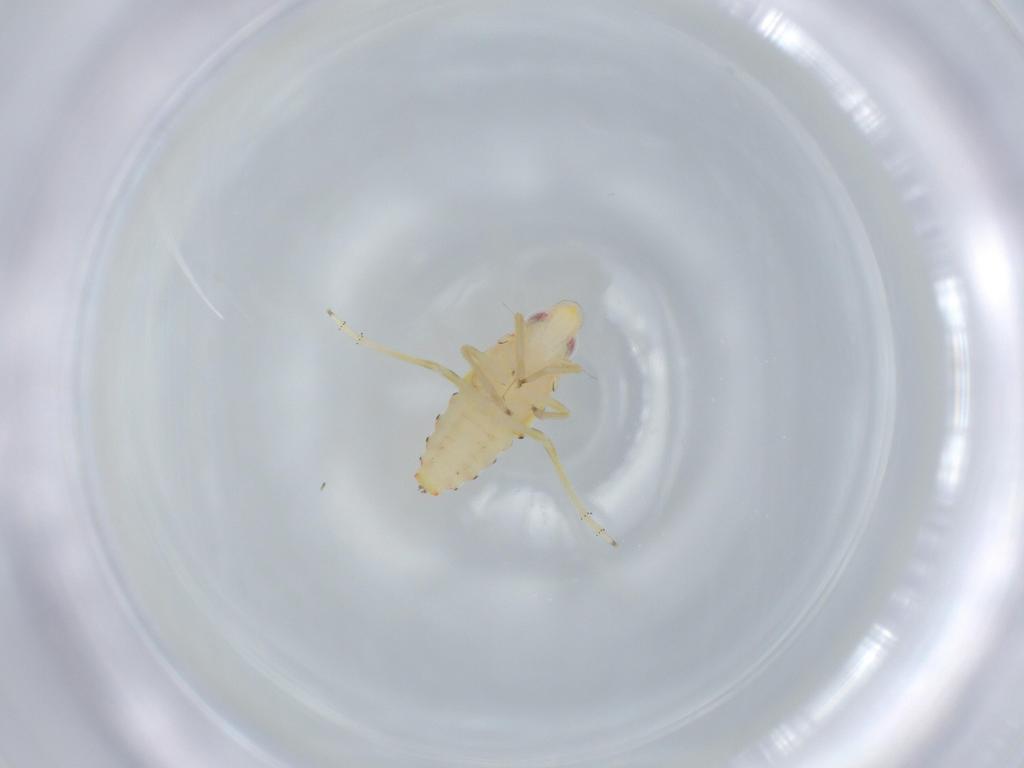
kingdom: Animalia
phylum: Arthropoda
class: Insecta
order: Hemiptera
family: Tropiduchidae
